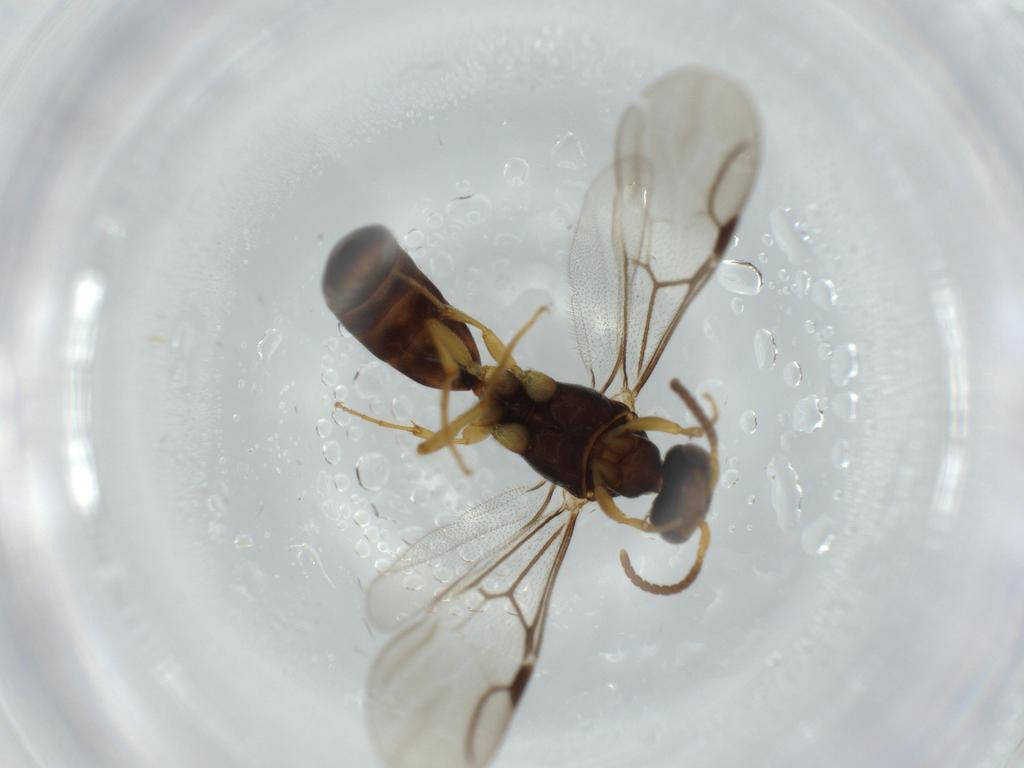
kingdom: Animalia
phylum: Arthropoda
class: Insecta
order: Hymenoptera
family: Bethylidae
